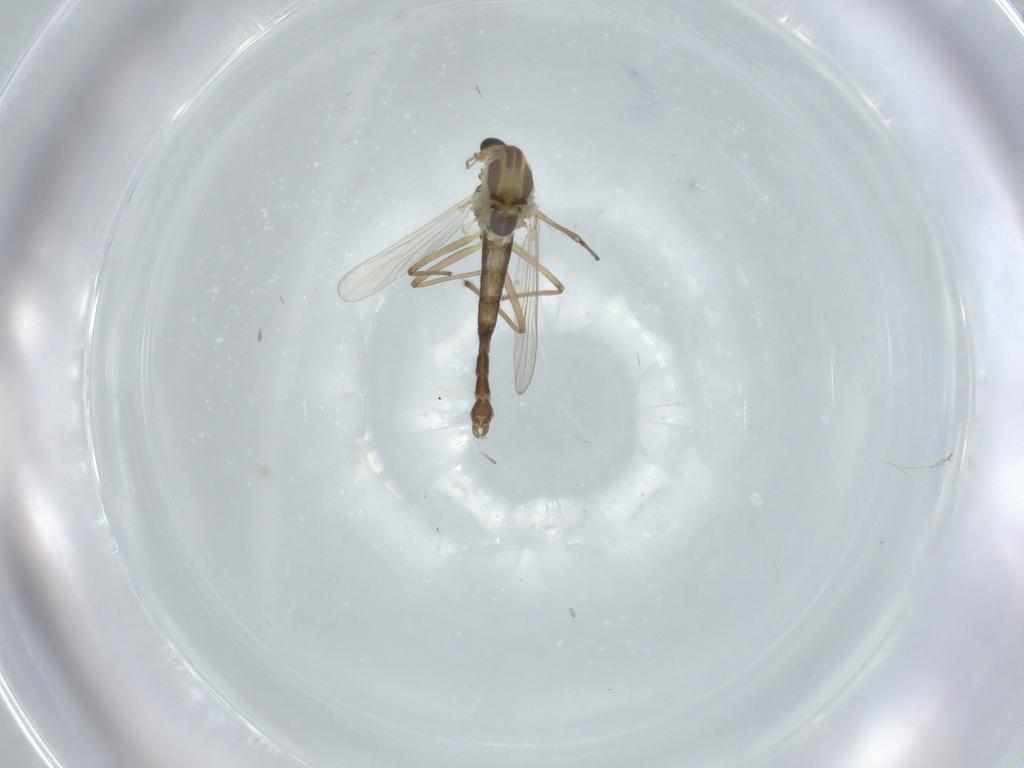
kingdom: Animalia
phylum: Arthropoda
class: Insecta
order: Diptera
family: Chironomidae
